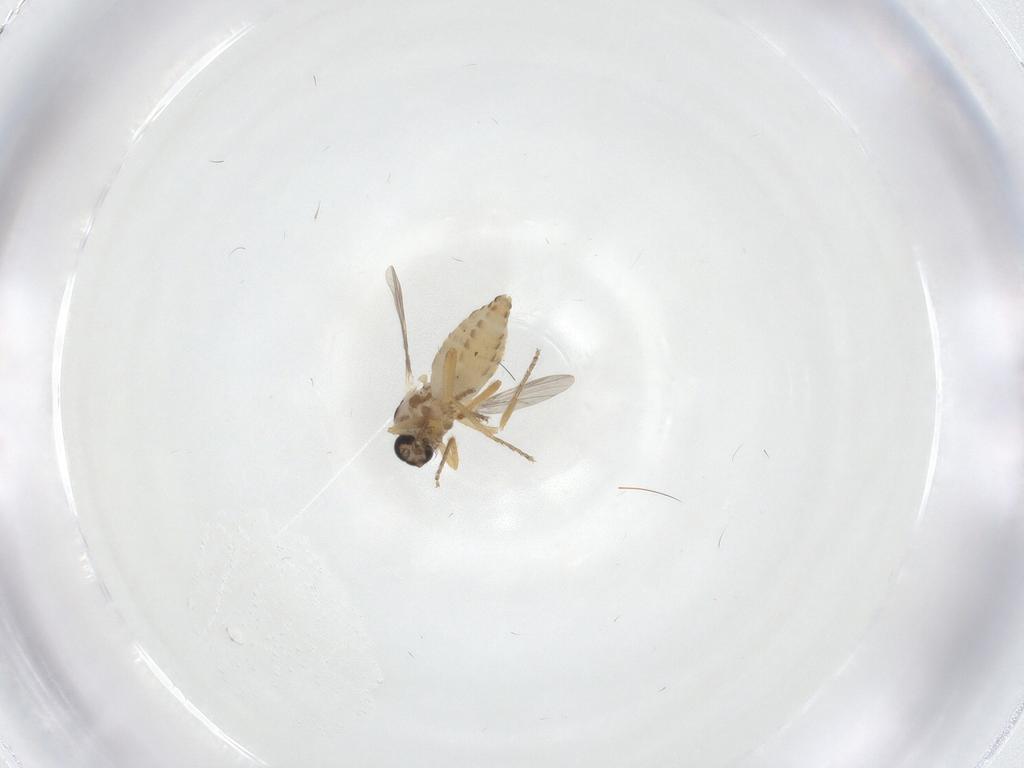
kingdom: Animalia
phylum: Arthropoda
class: Insecta
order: Diptera
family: Ceratopogonidae
